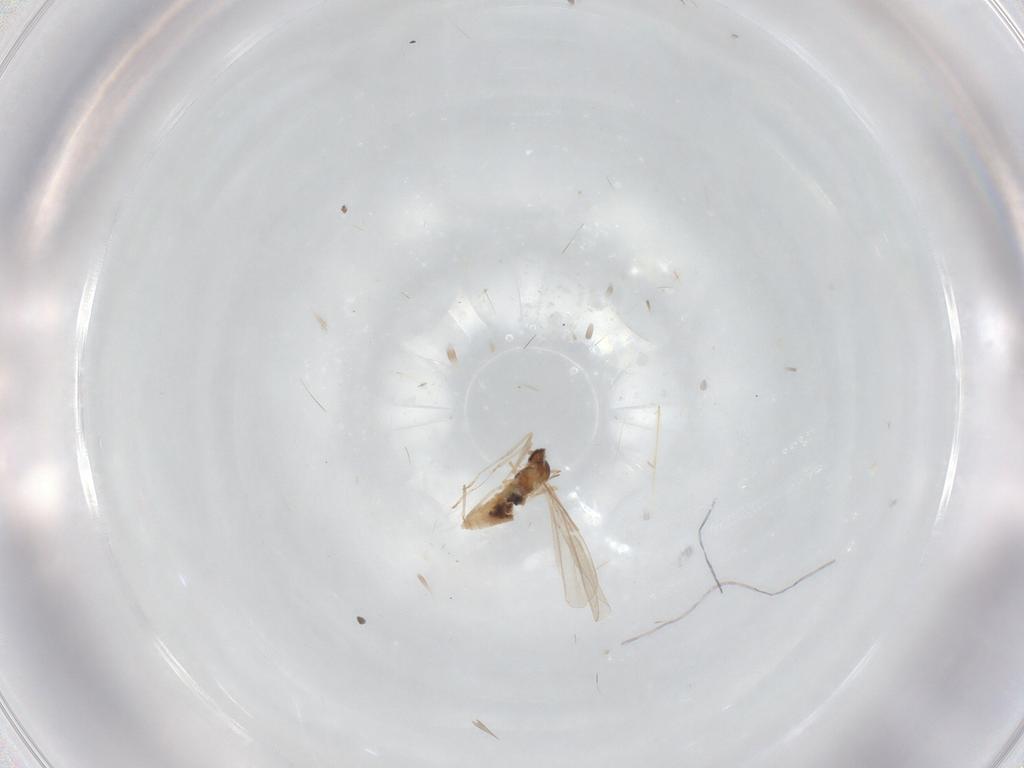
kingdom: Animalia
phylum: Arthropoda
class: Insecta
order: Diptera
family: Cecidomyiidae
